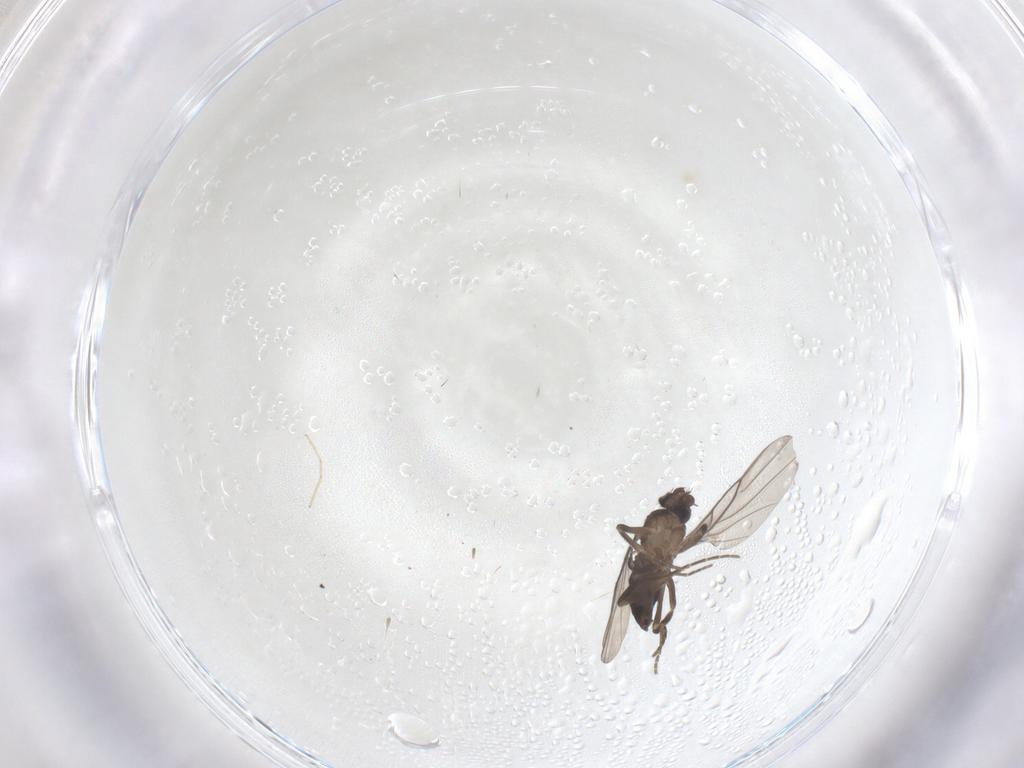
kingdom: Animalia
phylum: Arthropoda
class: Insecta
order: Diptera
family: Phoridae
